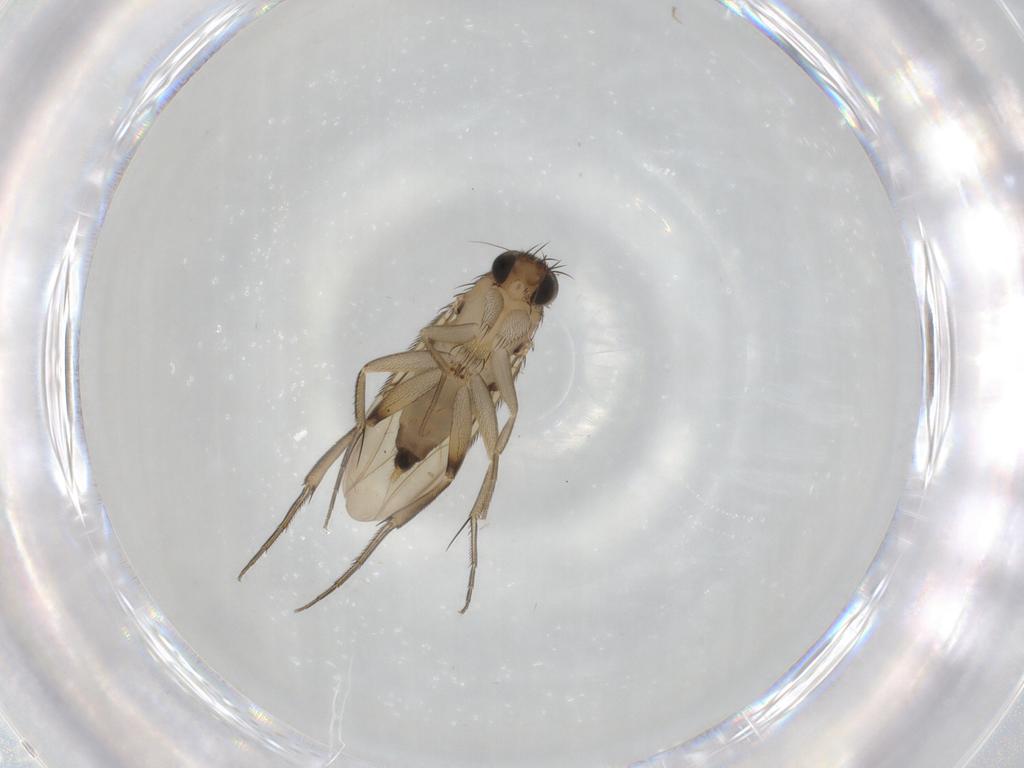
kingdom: Animalia
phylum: Arthropoda
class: Insecta
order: Diptera
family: Phoridae
